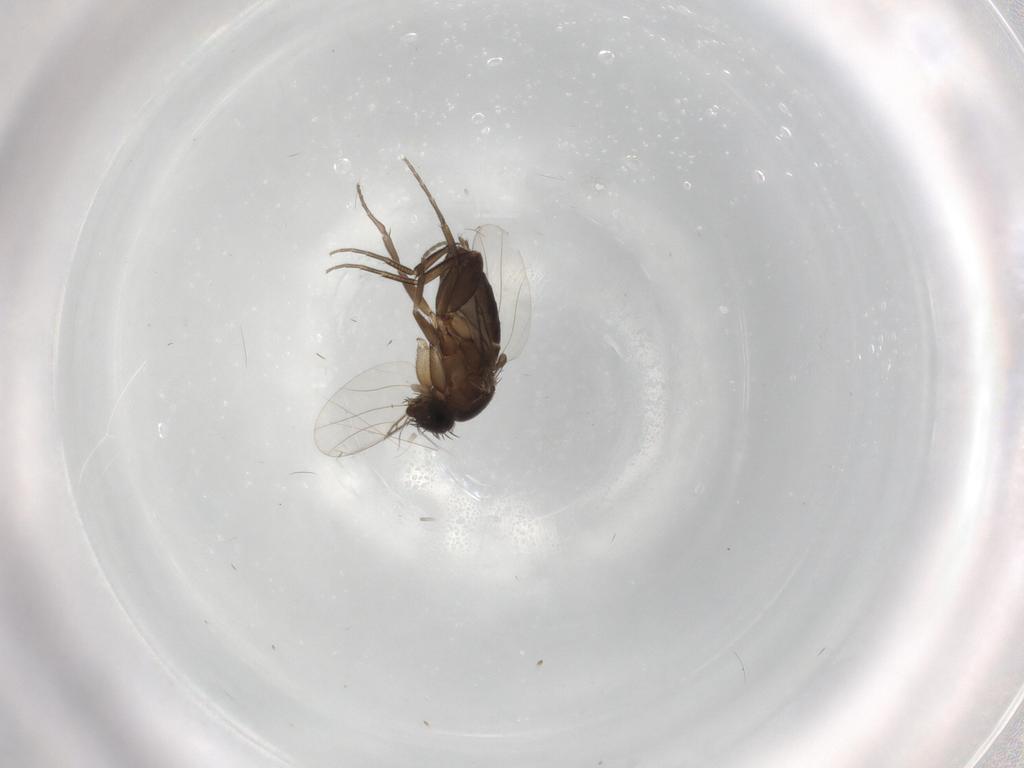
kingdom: Animalia
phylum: Arthropoda
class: Insecta
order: Diptera
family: Phoridae
